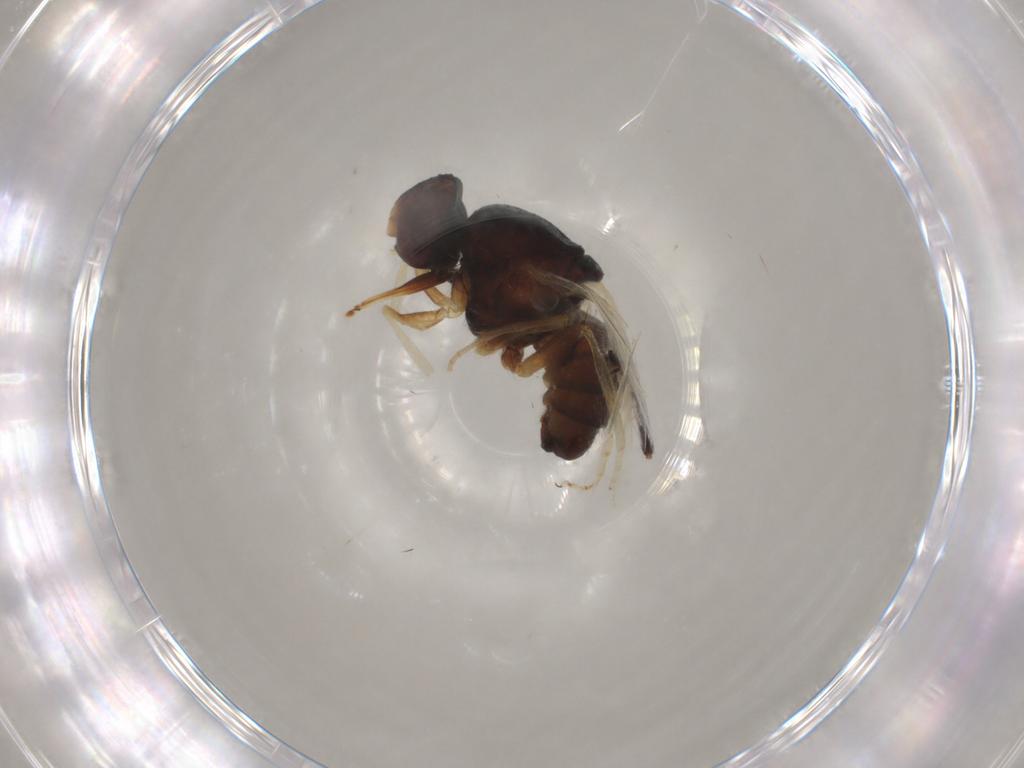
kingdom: Animalia
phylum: Arthropoda
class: Insecta
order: Diptera
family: Muscidae
